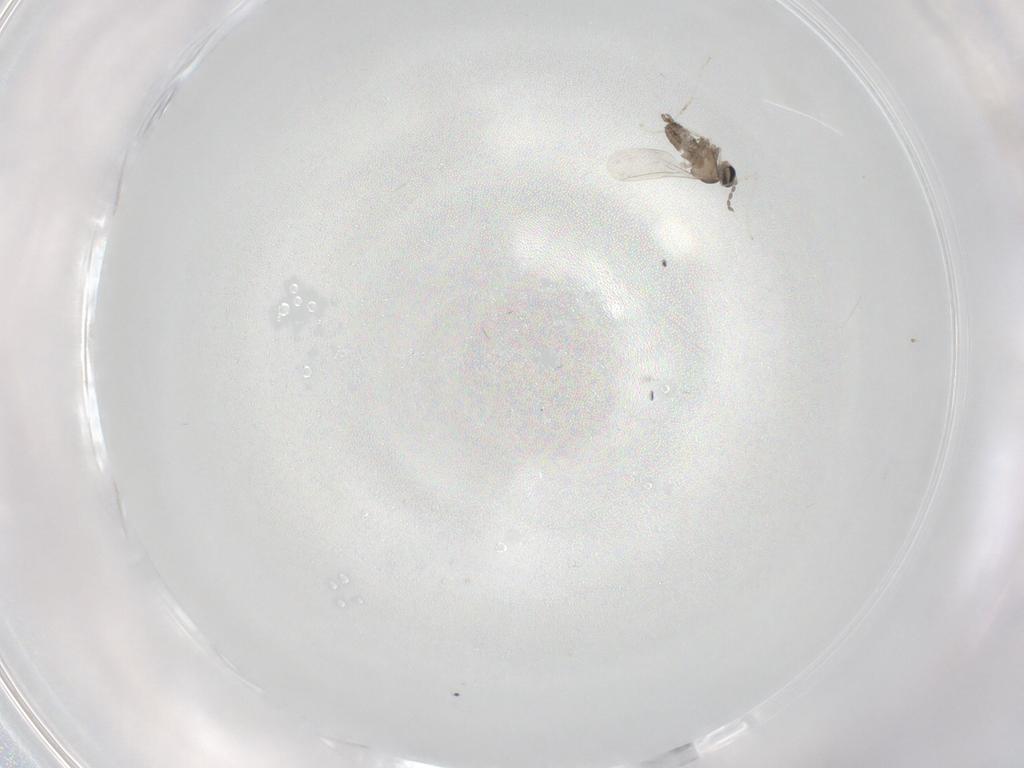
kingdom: Animalia
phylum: Arthropoda
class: Insecta
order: Diptera
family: Cecidomyiidae
